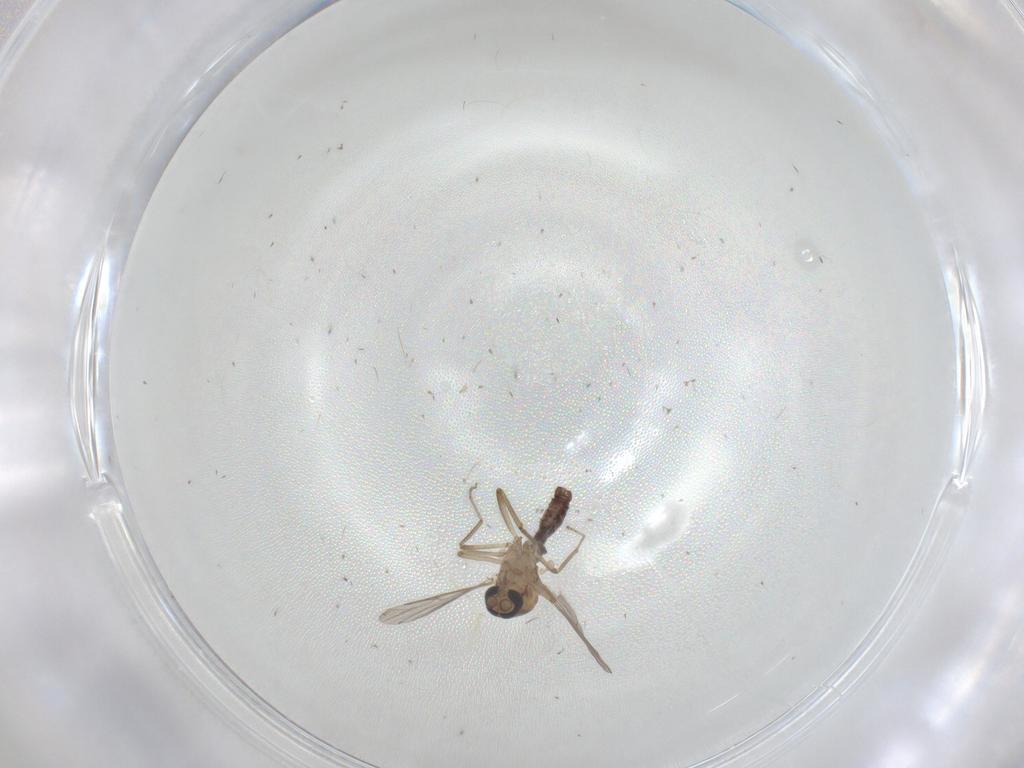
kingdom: Animalia
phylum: Arthropoda
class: Insecta
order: Diptera
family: Ceratopogonidae
